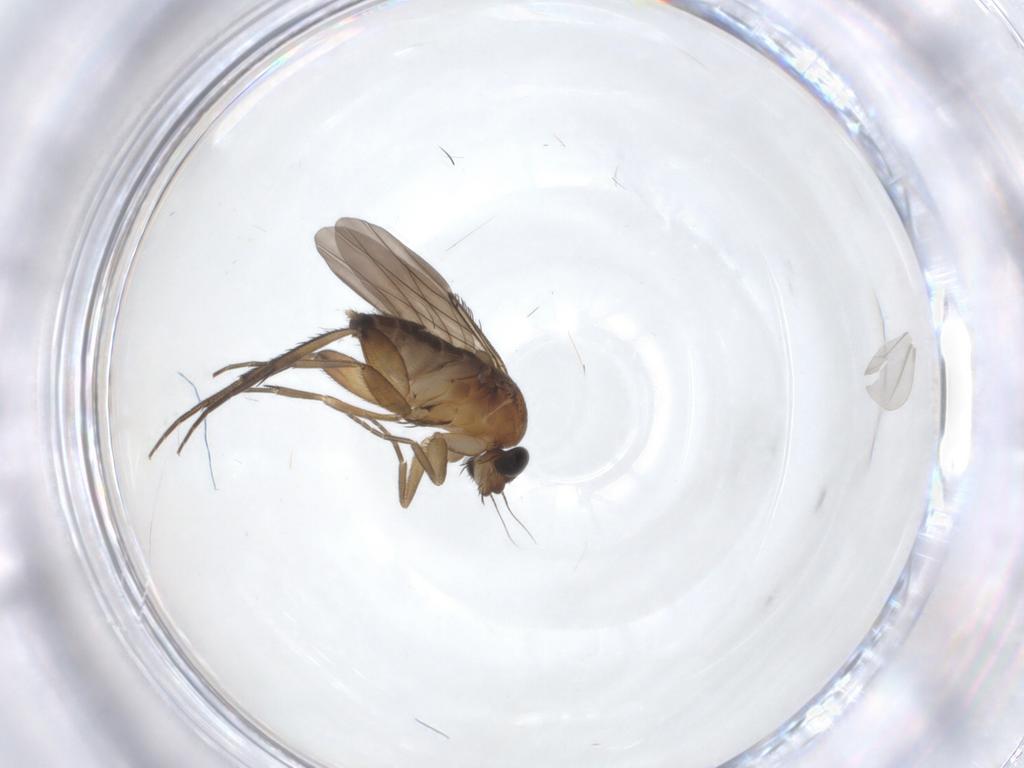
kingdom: Animalia
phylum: Arthropoda
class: Insecta
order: Diptera
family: Phoridae
